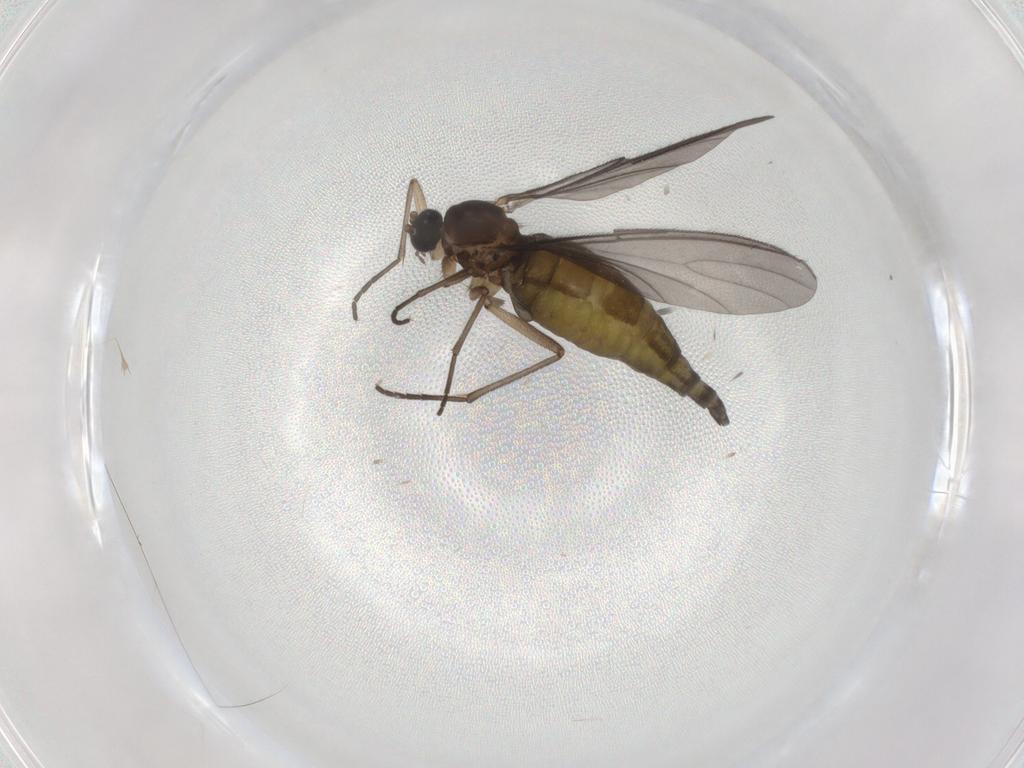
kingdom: Animalia
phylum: Arthropoda
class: Insecta
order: Diptera
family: Sciaridae
